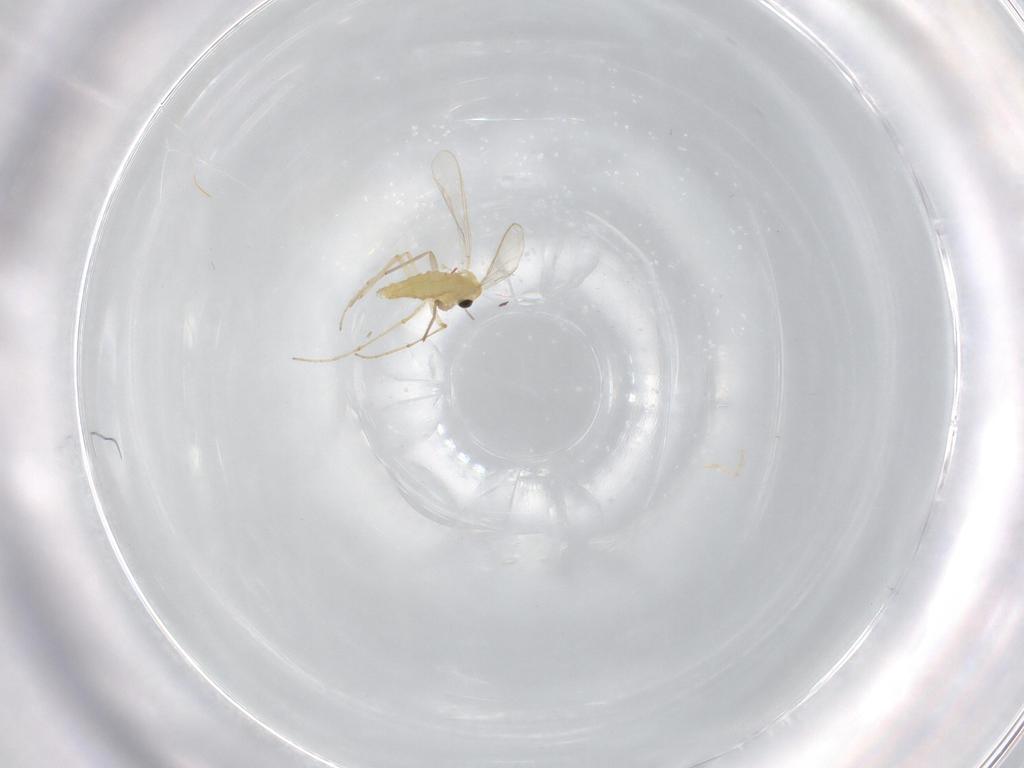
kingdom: Animalia
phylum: Arthropoda
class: Insecta
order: Diptera
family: Chironomidae
